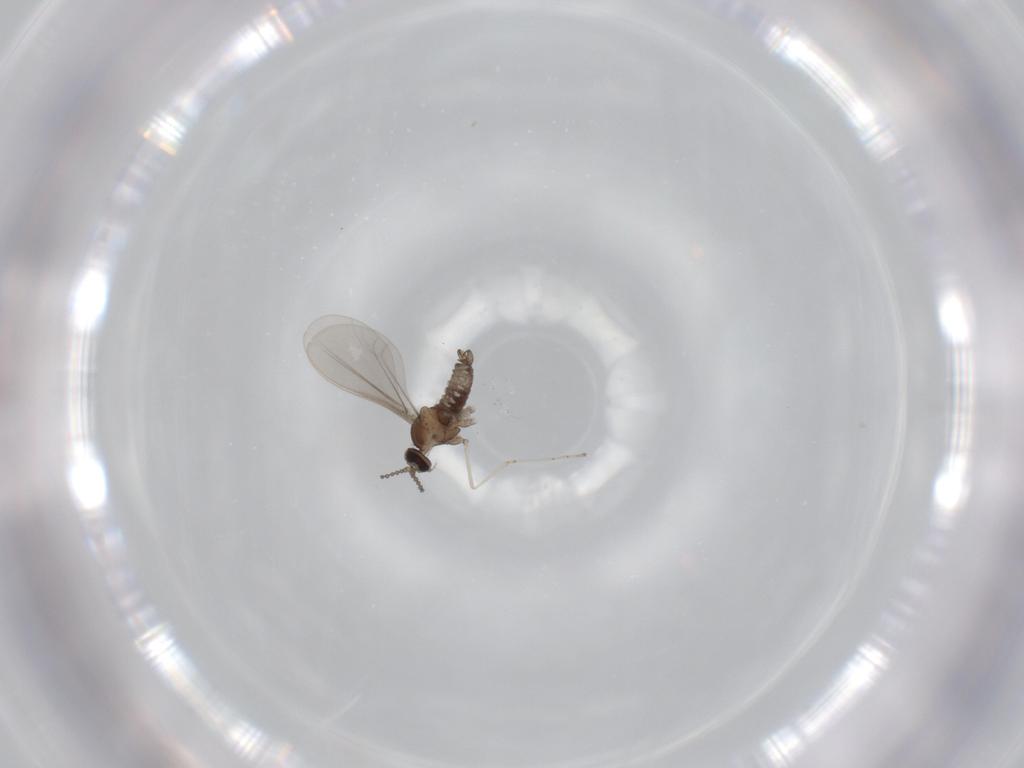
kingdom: Animalia
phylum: Arthropoda
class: Insecta
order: Diptera
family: Cecidomyiidae
